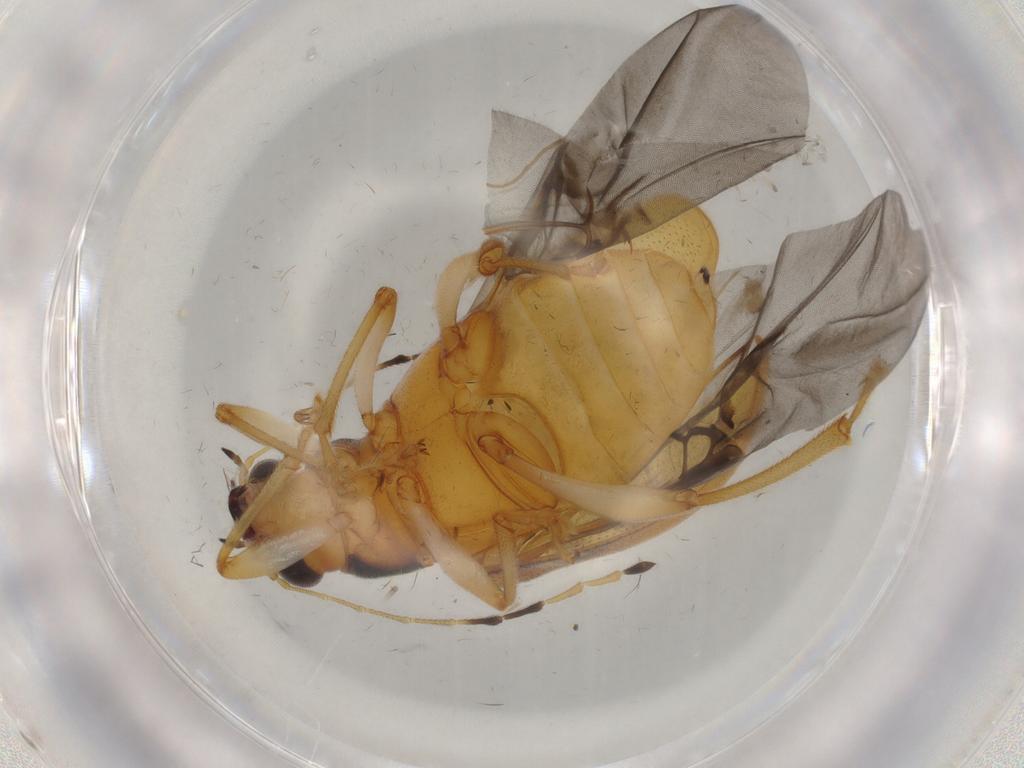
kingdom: Animalia
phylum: Arthropoda
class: Insecta
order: Coleoptera
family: Chrysomelidae
